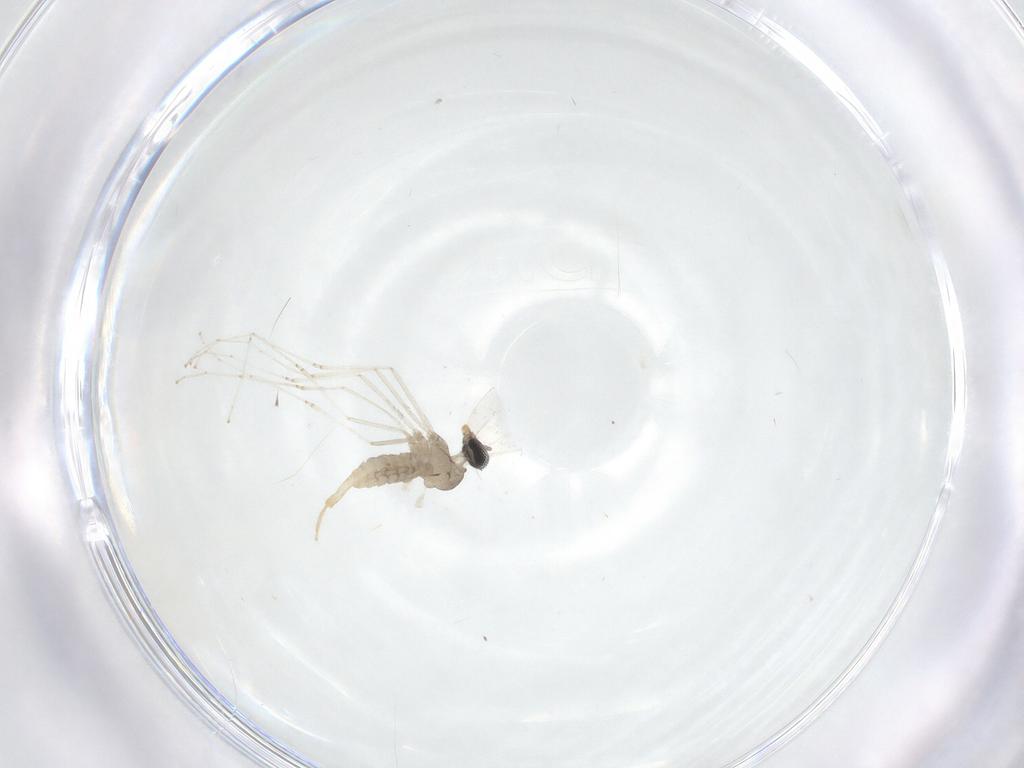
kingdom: Animalia
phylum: Arthropoda
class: Insecta
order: Diptera
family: Cecidomyiidae
